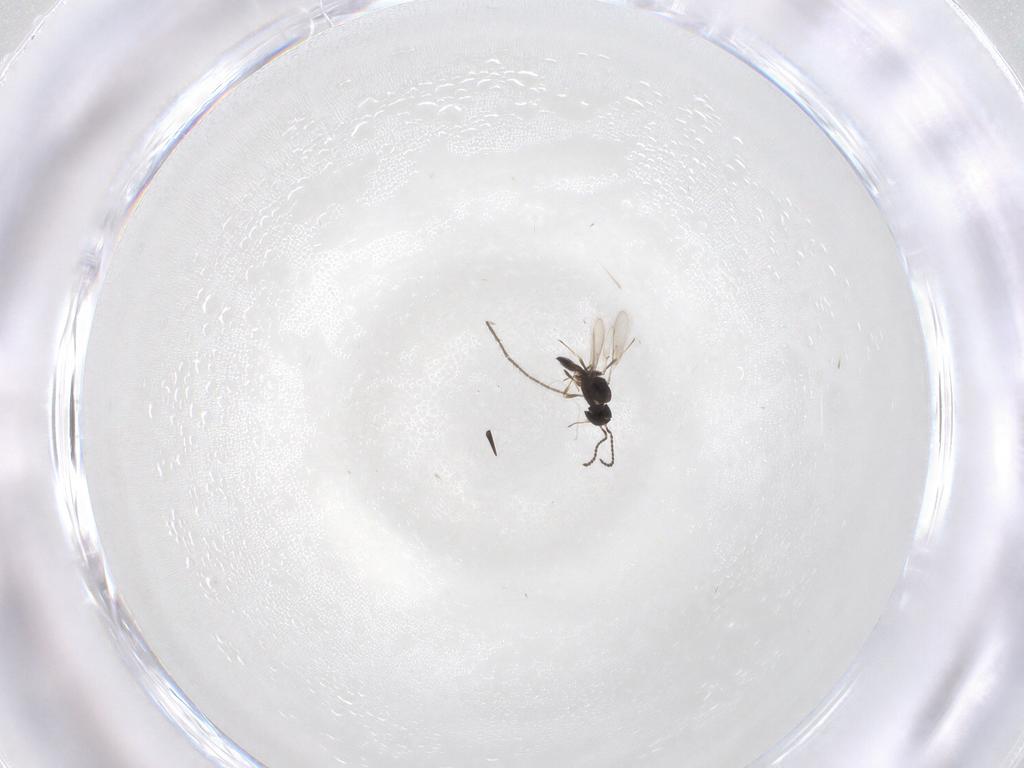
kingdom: Animalia
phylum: Arthropoda
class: Insecta
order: Hymenoptera
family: Scelionidae
